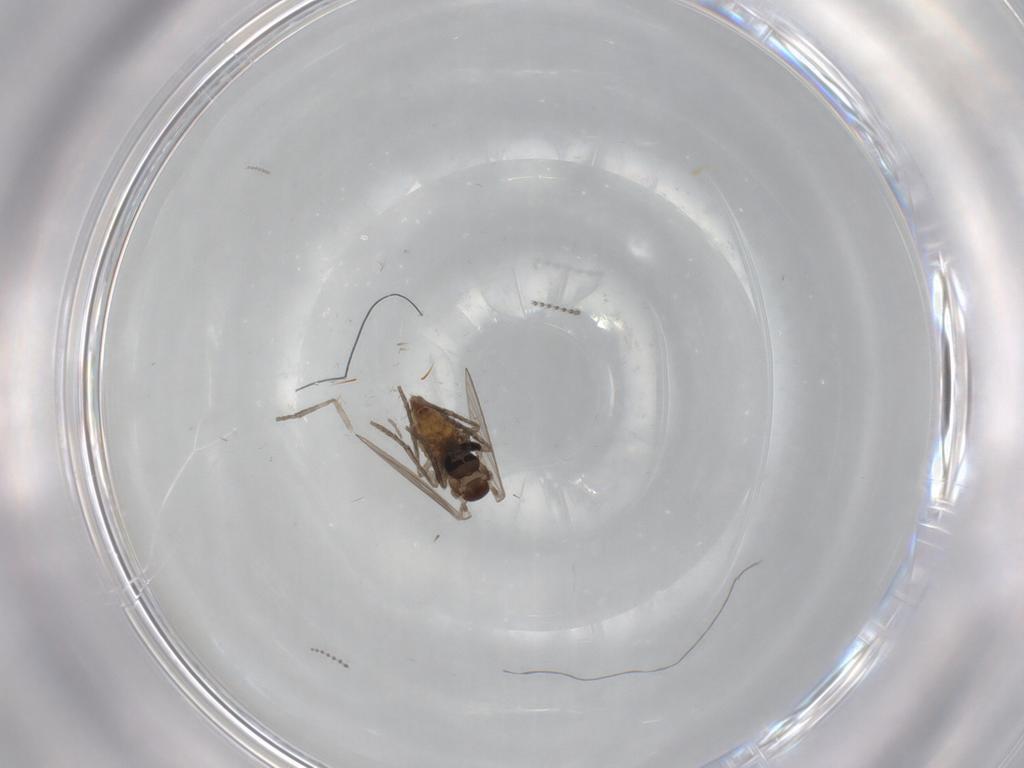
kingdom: Animalia
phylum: Arthropoda
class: Insecta
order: Diptera
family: Psychodidae
